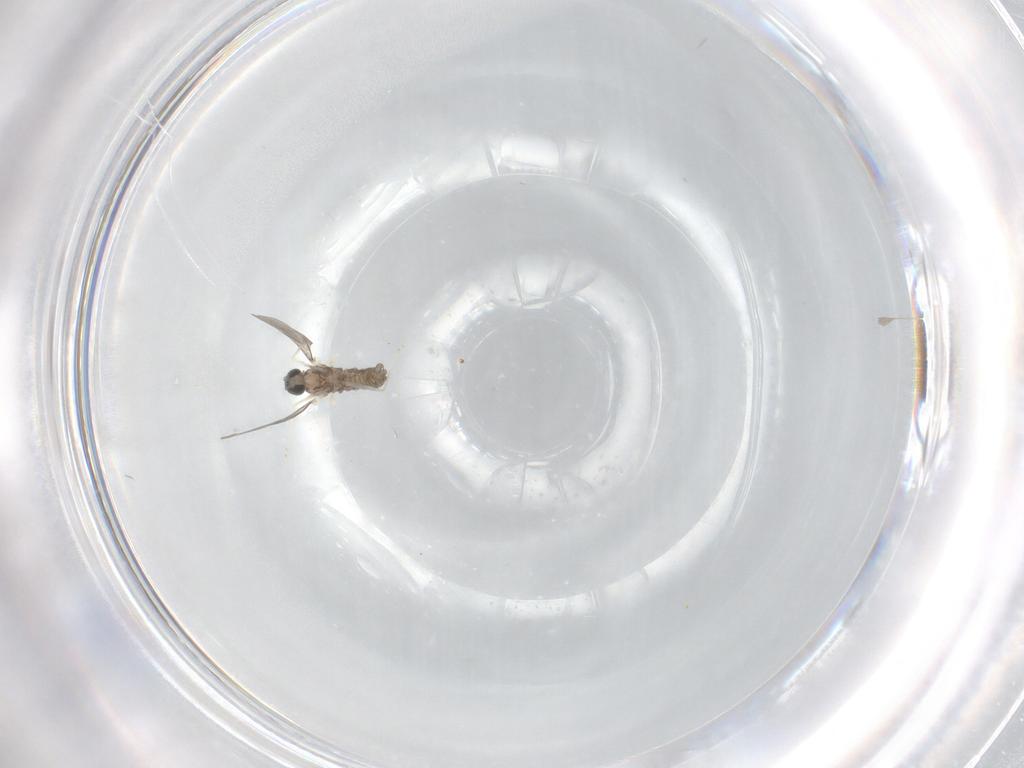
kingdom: Animalia
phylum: Arthropoda
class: Insecta
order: Diptera
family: Cecidomyiidae
